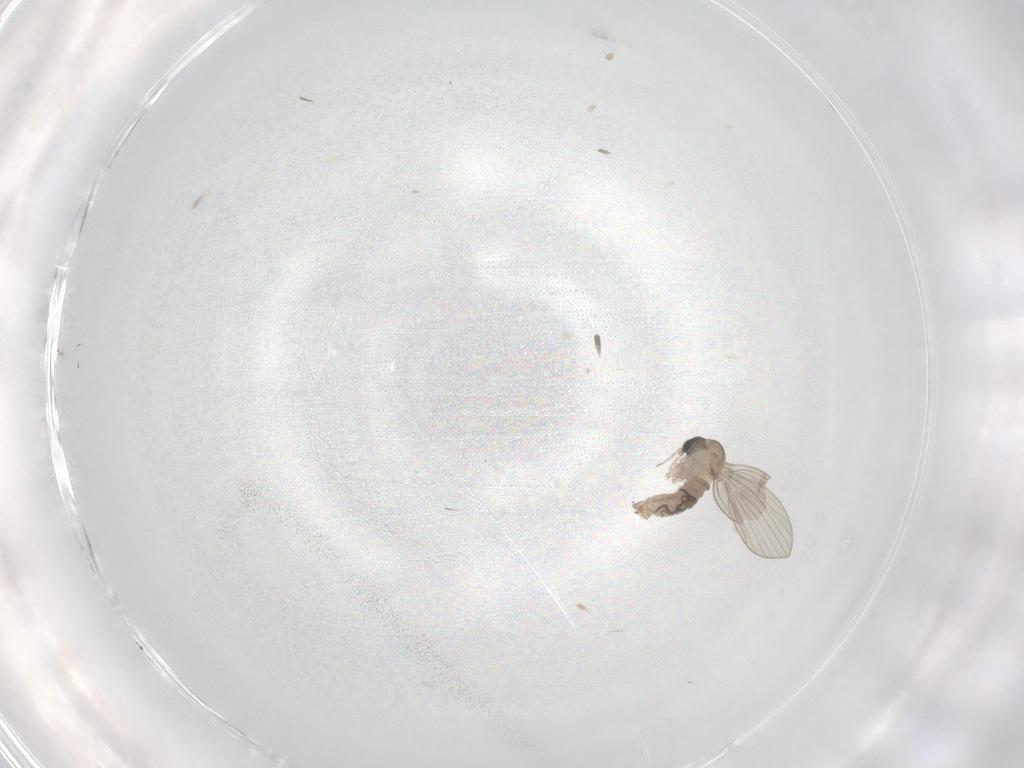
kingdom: Animalia
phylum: Arthropoda
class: Insecta
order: Diptera
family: Psychodidae
